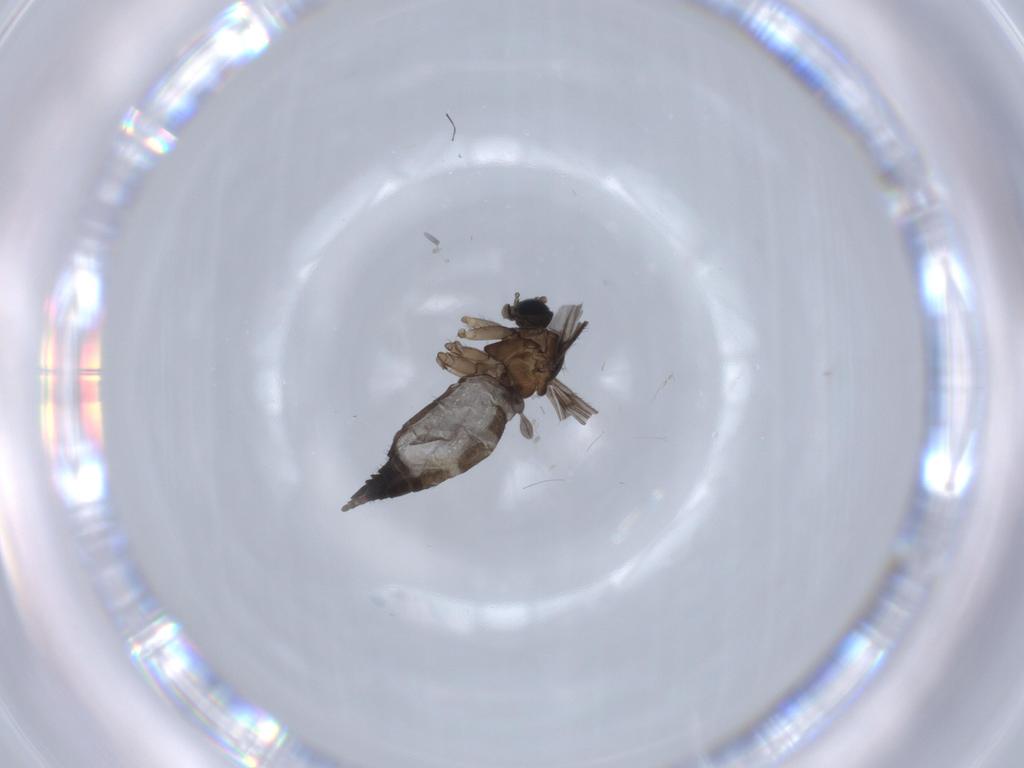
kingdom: Animalia
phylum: Arthropoda
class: Insecta
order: Diptera
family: Sciaridae
